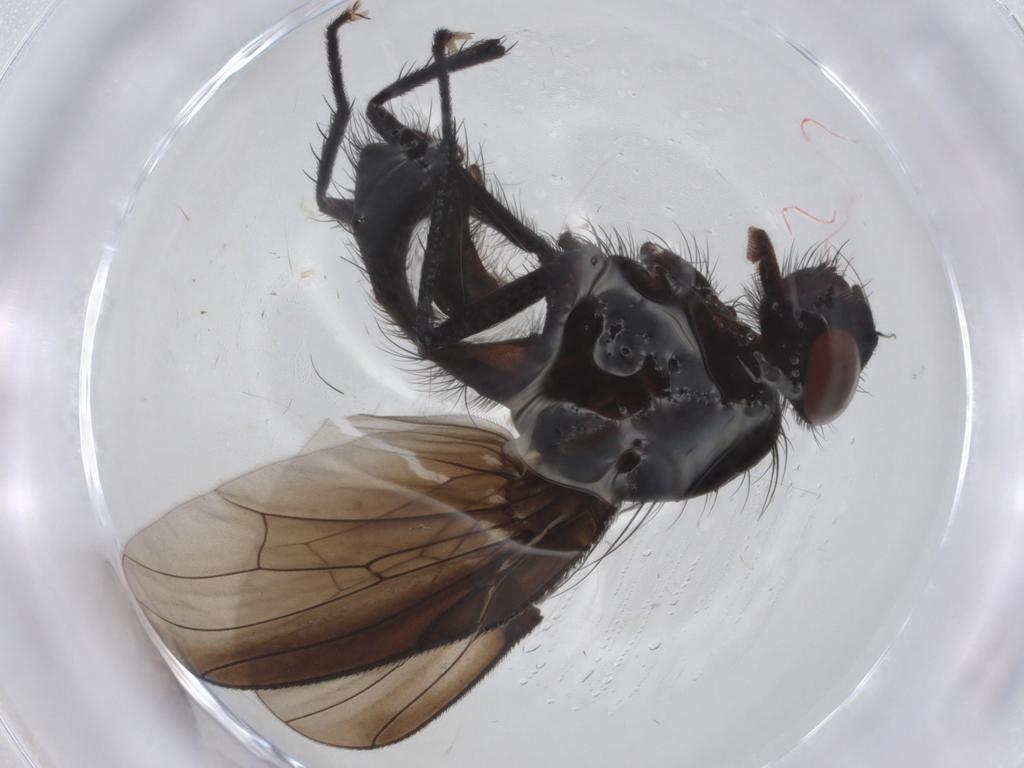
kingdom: Animalia
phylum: Arthropoda
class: Insecta
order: Diptera
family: Anthomyiidae
